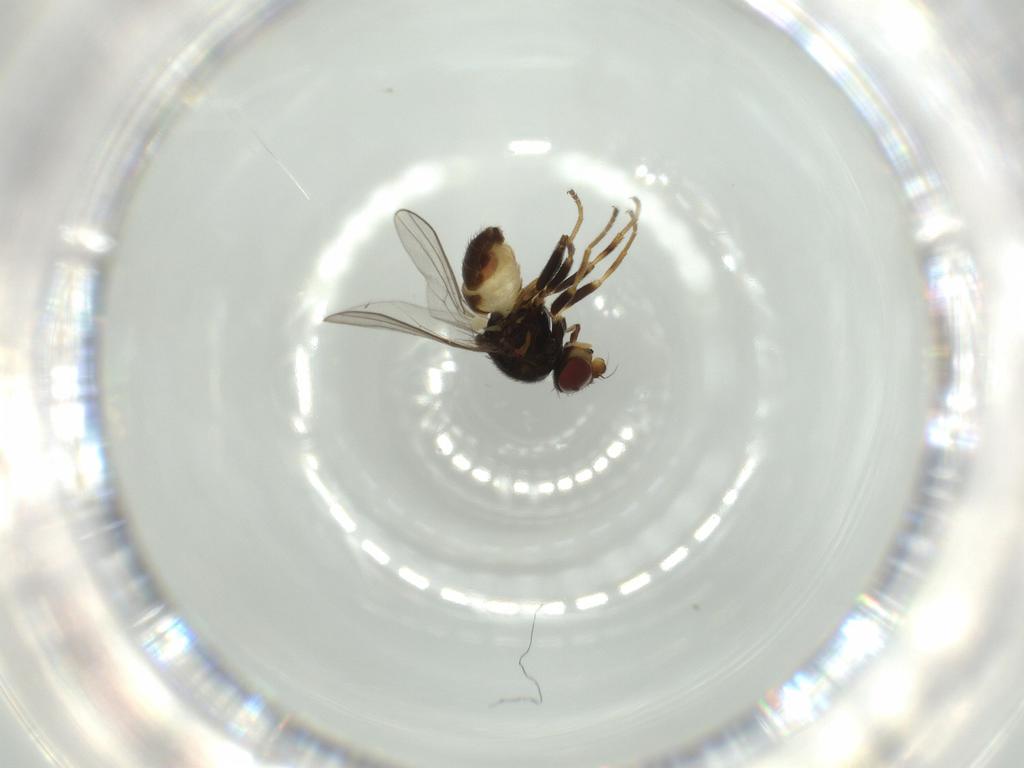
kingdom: Animalia
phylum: Arthropoda
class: Insecta
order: Diptera
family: Chloropidae
